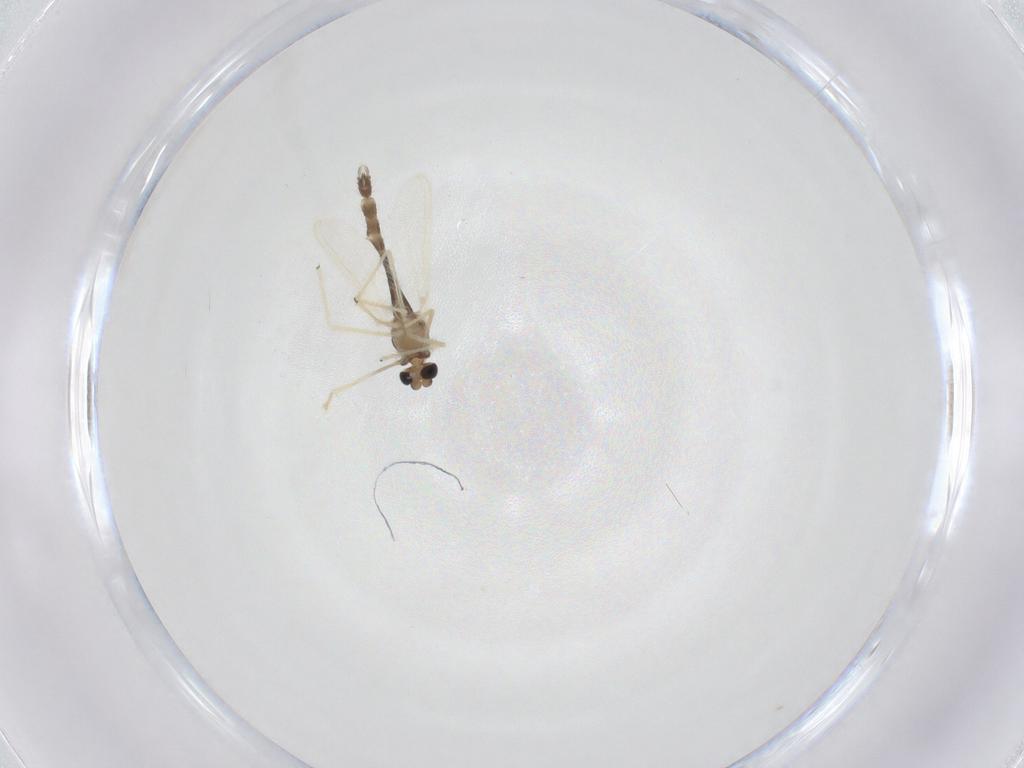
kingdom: Animalia
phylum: Arthropoda
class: Insecta
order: Diptera
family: Chironomidae
